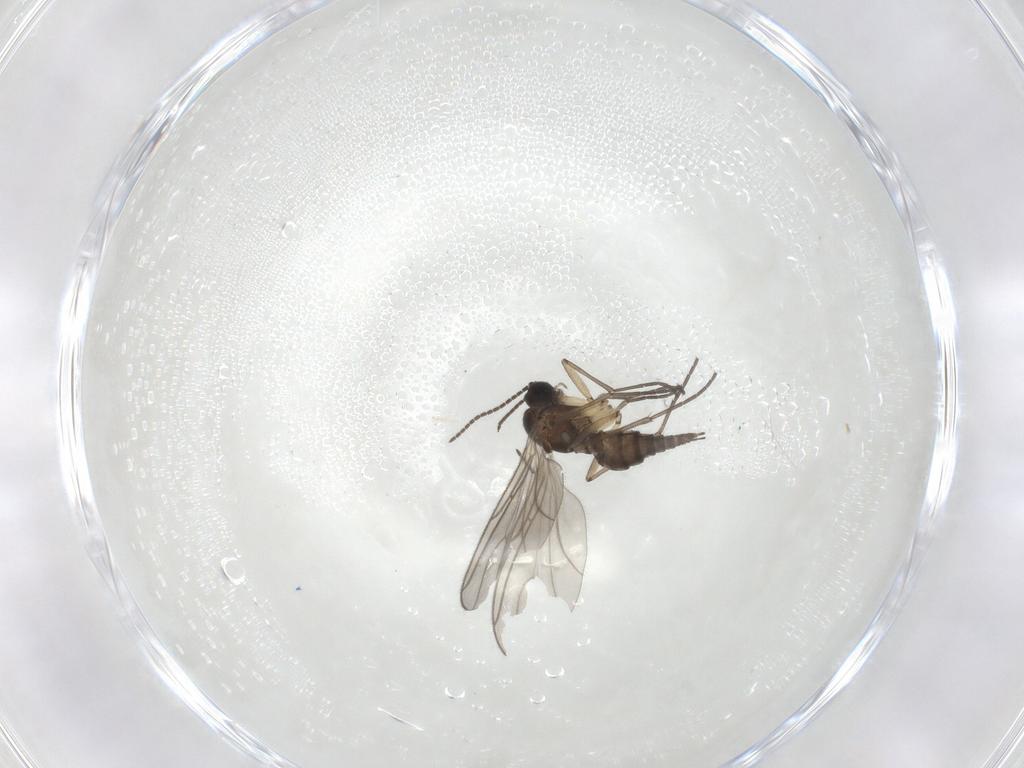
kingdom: Animalia
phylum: Arthropoda
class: Insecta
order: Diptera
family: Sciaridae
